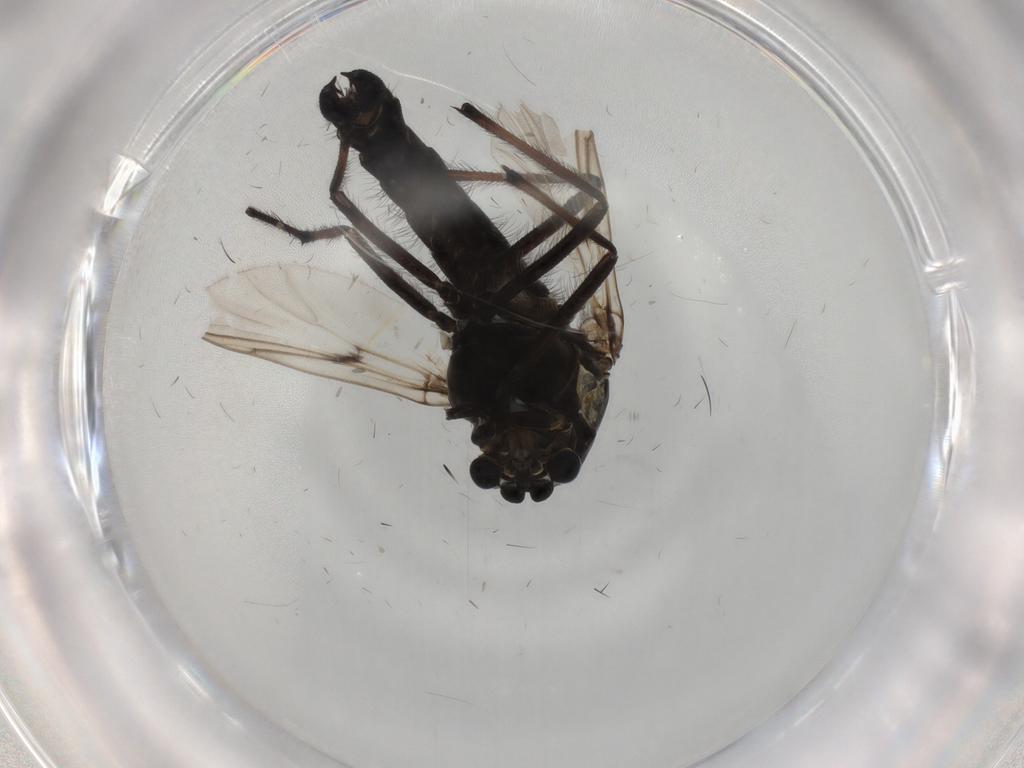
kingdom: Animalia
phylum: Arthropoda
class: Insecta
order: Diptera
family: Chironomidae
